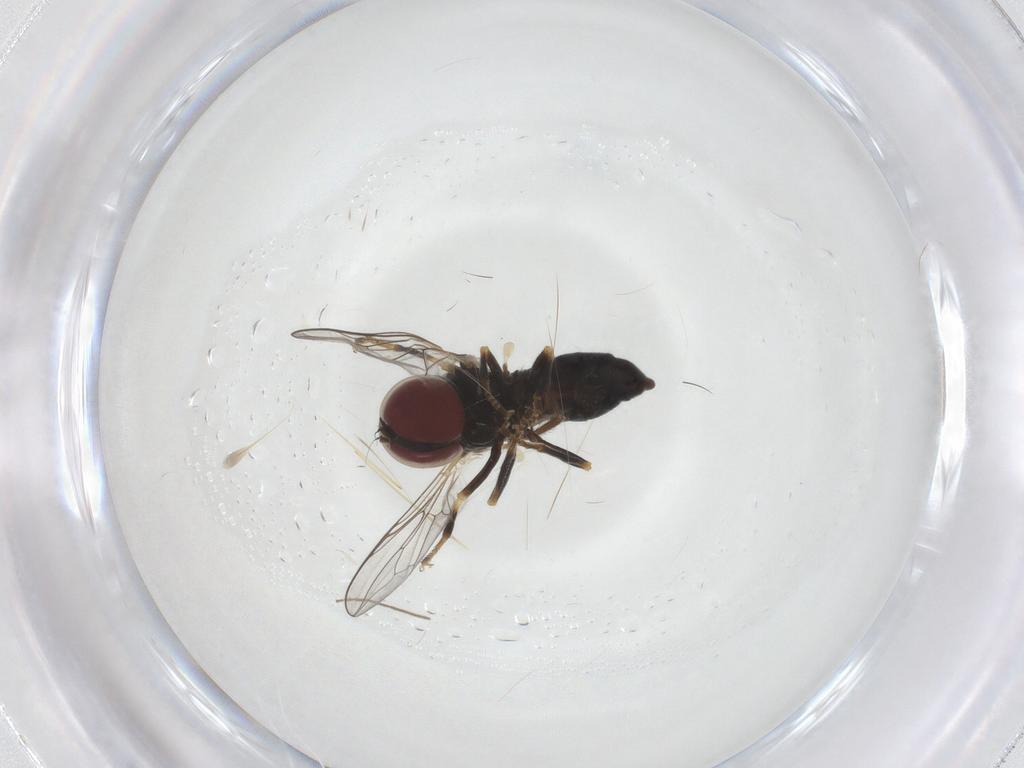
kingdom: Animalia
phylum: Arthropoda
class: Insecta
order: Diptera
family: Pipunculidae
